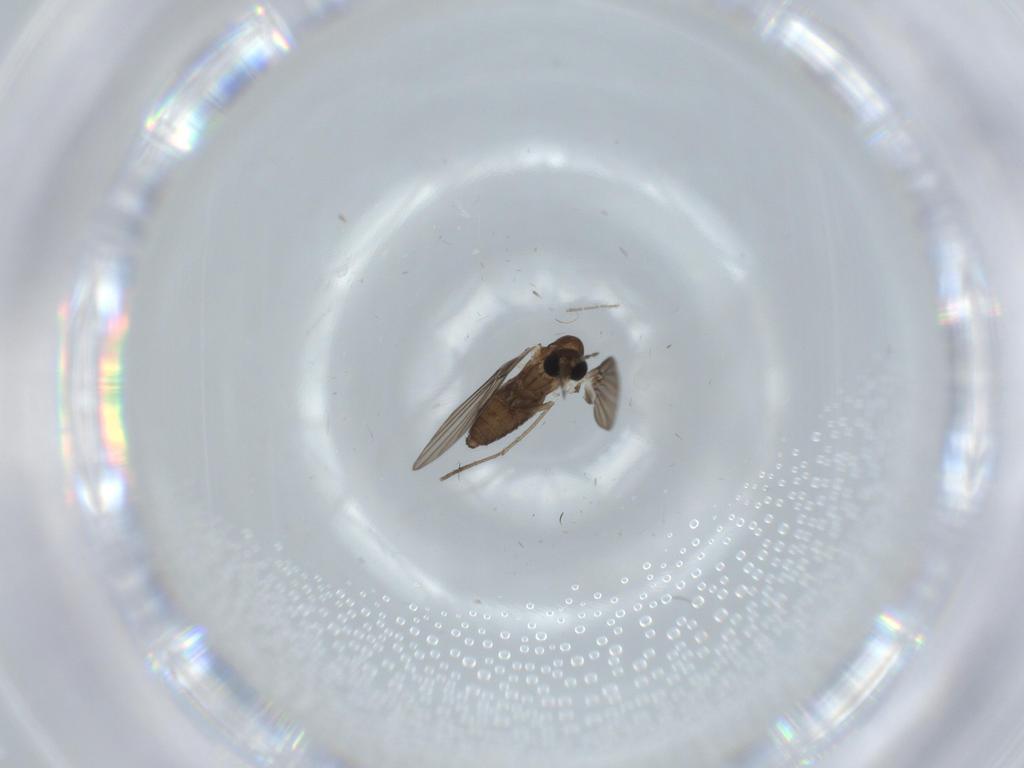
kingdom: Animalia
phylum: Arthropoda
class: Insecta
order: Diptera
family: Psychodidae
